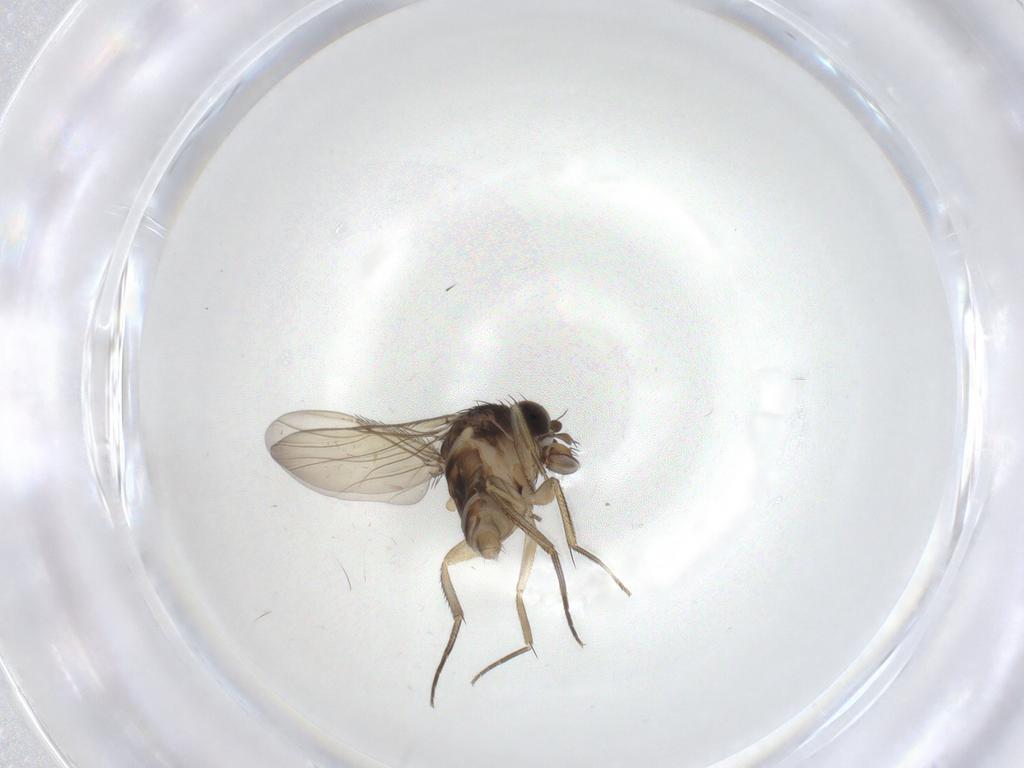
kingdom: Animalia
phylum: Arthropoda
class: Insecta
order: Diptera
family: Phoridae
